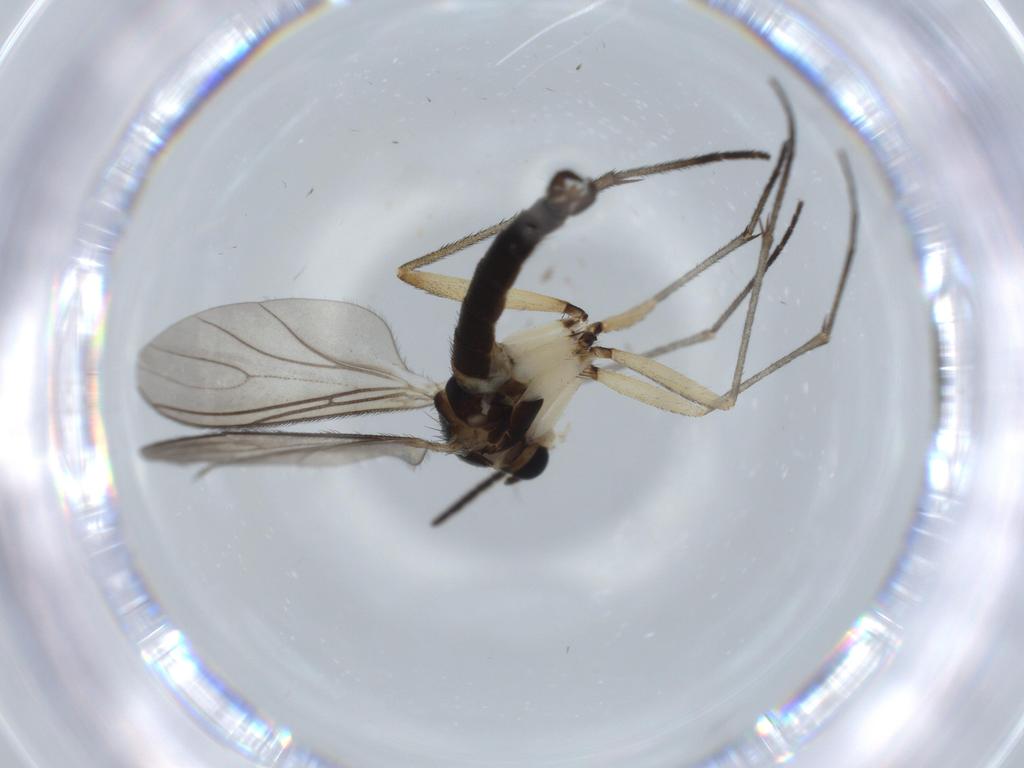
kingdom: Animalia
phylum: Arthropoda
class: Insecta
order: Diptera
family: Sciaridae
